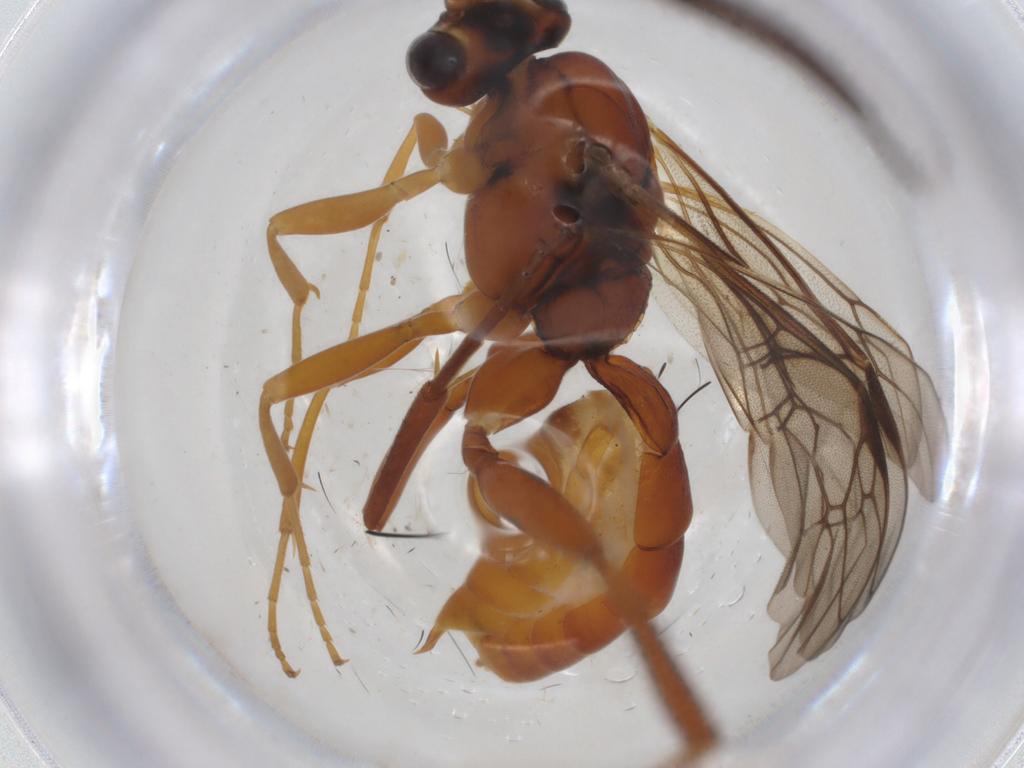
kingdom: Animalia
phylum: Arthropoda
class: Insecta
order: Hymenoptera
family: Ichneumonidae
